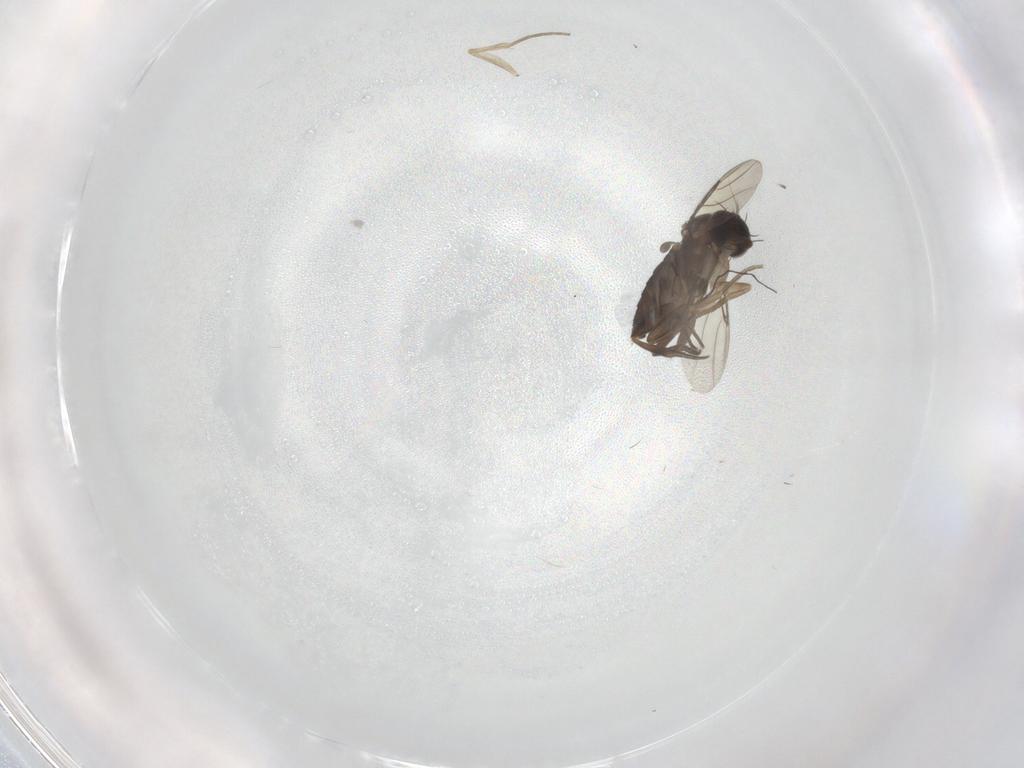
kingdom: Animalia
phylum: Arthropoda
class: Insecta
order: Diptera
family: Phoridae
